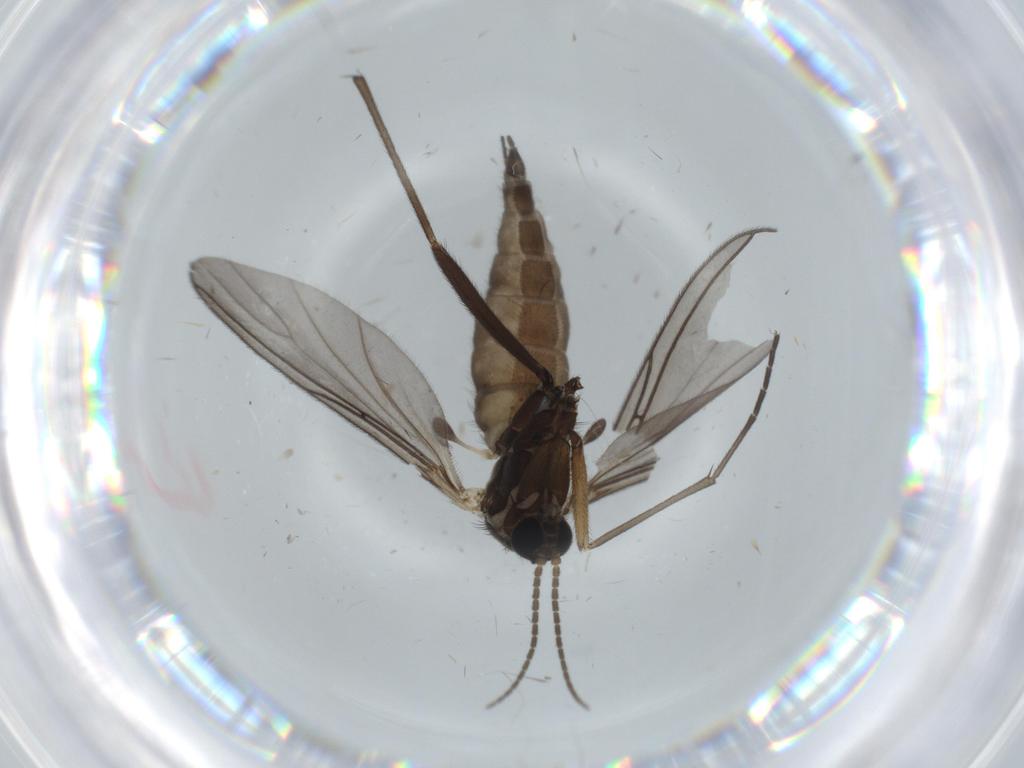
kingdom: Animalia
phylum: Arthropoda
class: Insecta
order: Diptera
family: Sciaridae
